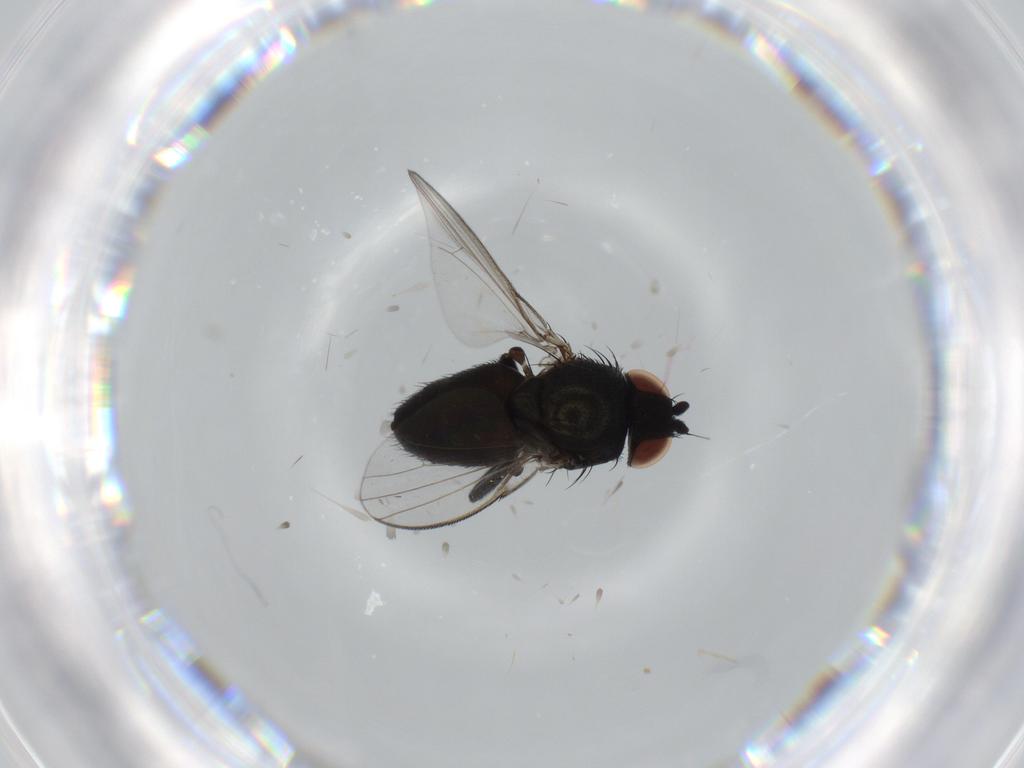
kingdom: Animalia
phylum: Arthropoda
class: Insecta
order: Diptera
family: Milichiidae
